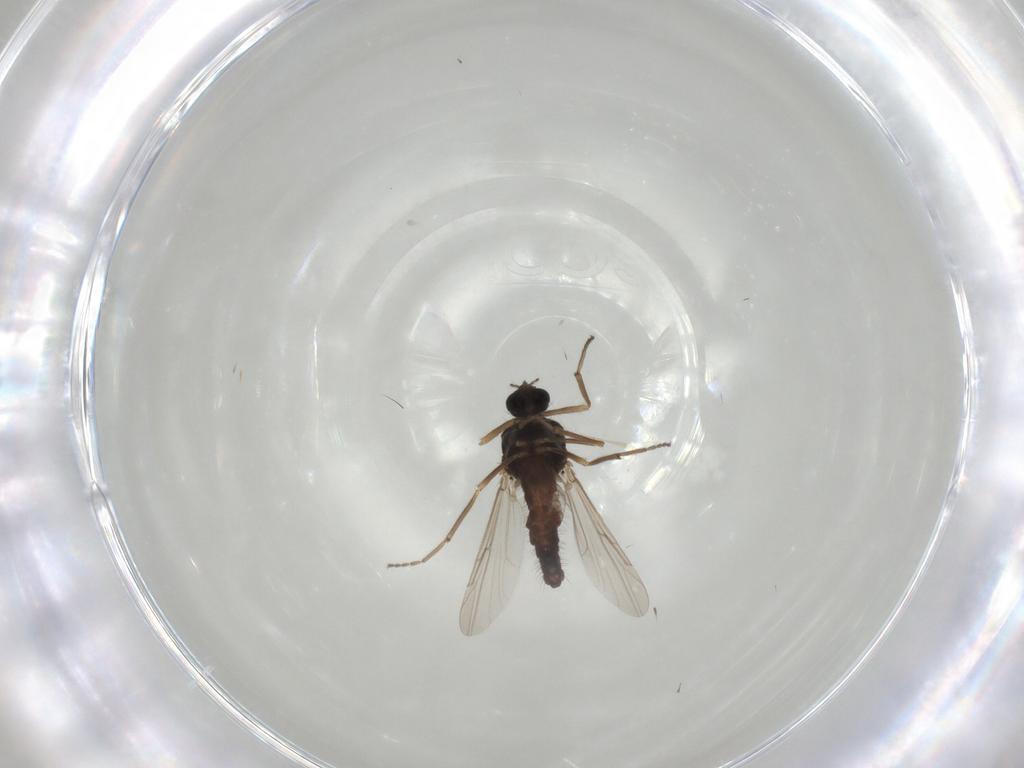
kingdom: Animalia
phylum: Arthropoda
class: Insecta
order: Diptera
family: Ceratopogonidae
